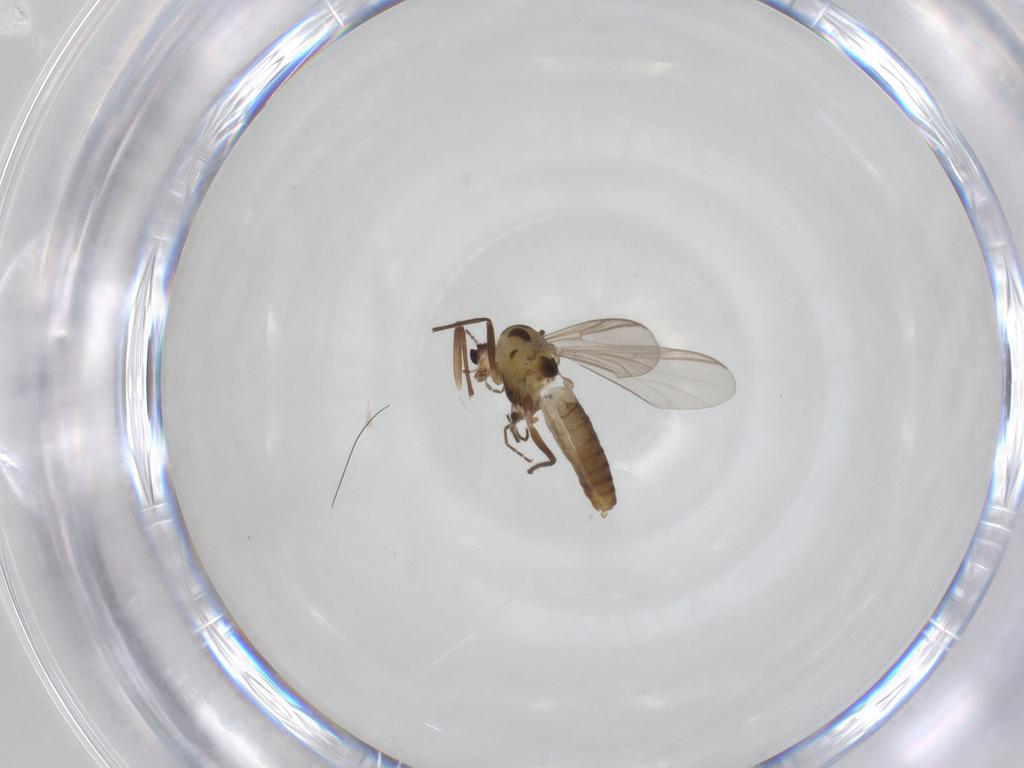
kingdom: Animalia
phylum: Arthropoda
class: Insecta
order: Diptera
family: Chironomidae
